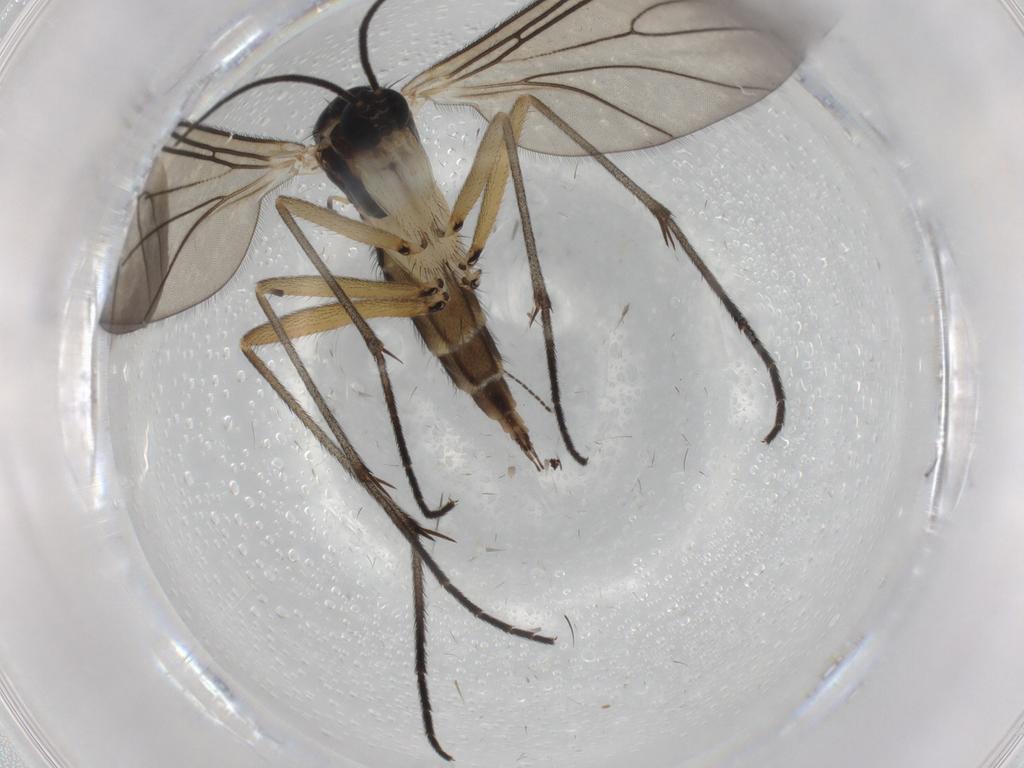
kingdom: Animalia
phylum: Arthropoda
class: Insecta
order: Diptera
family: Sciaridae
